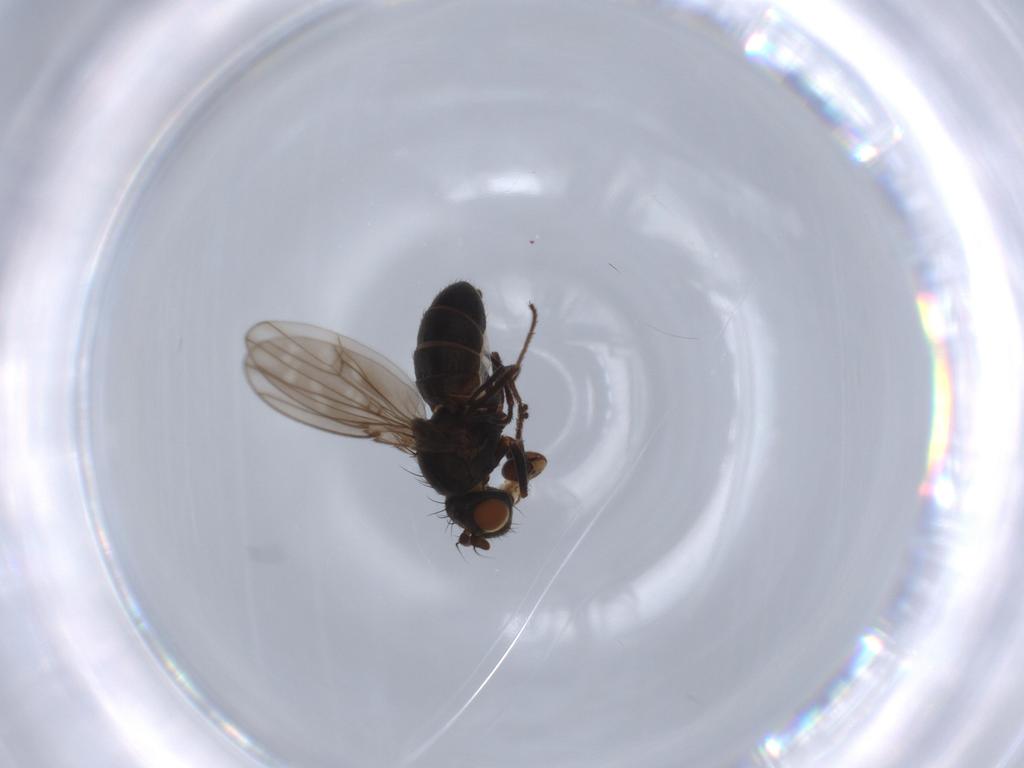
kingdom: Animalia
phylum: Arthropoda
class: Insecta
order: Diptera
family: Ephydridae
